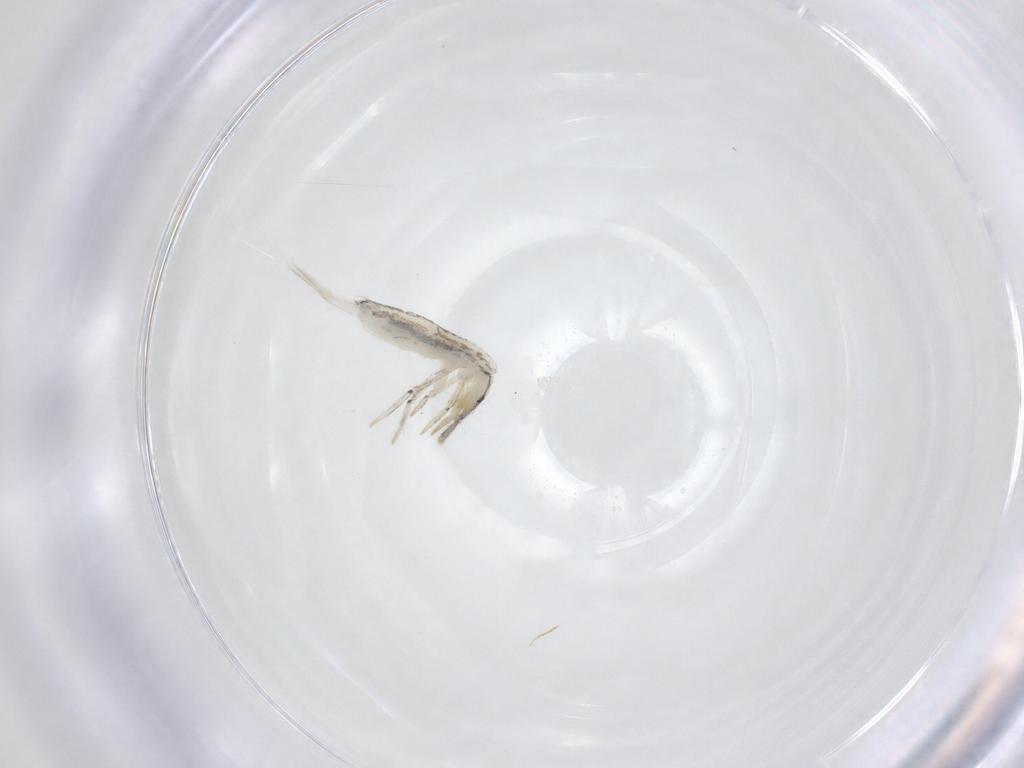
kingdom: Animalia
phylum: Arthropoda
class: Collembola
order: Entomobryomorpha
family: Entomobryidae
